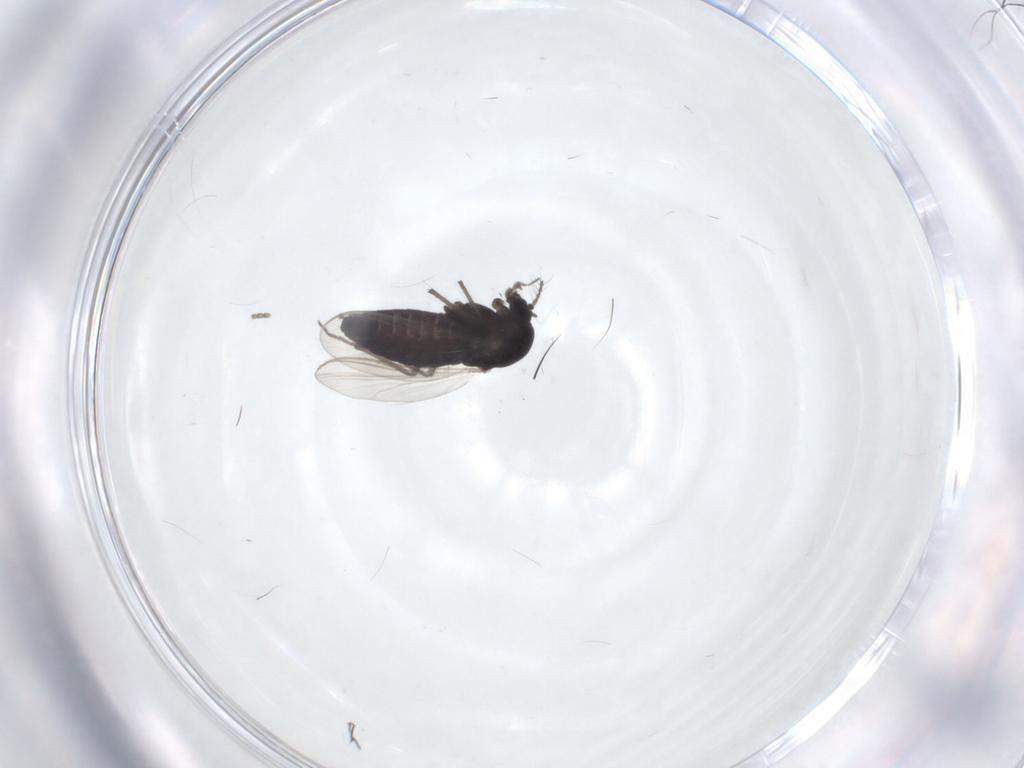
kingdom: Animalia
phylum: Arthropoda
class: Insecta
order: Diptera
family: Chironomidae
